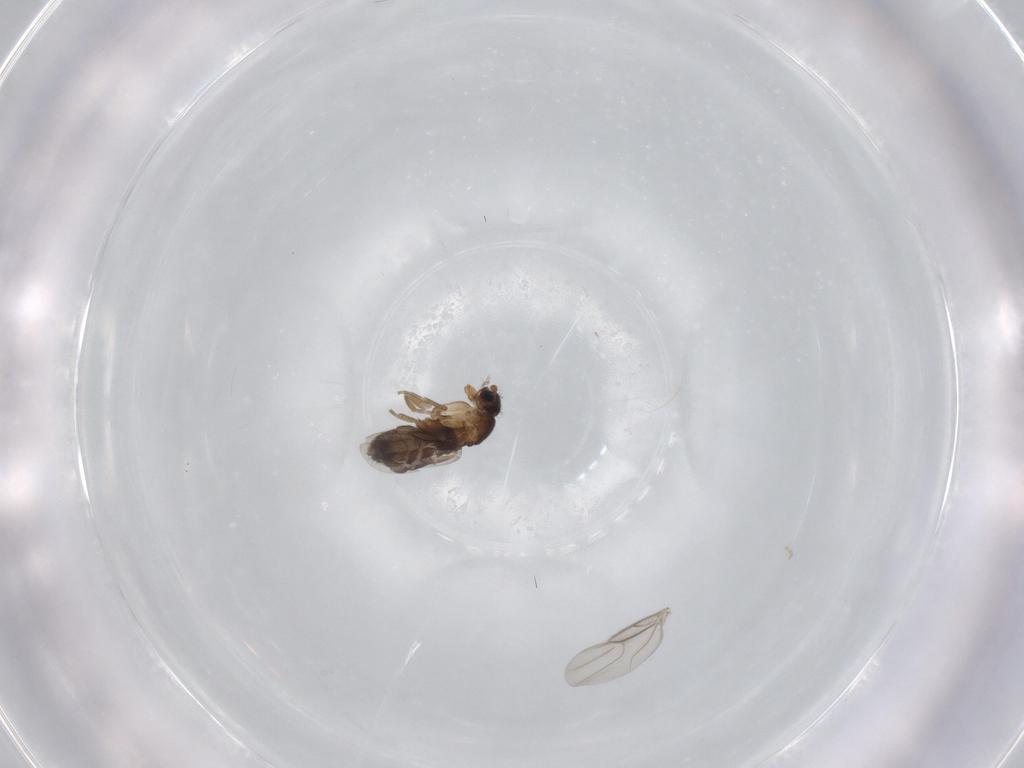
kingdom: Animalia
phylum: Arthropoda
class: Insecta
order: Diptera
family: Phoridae
